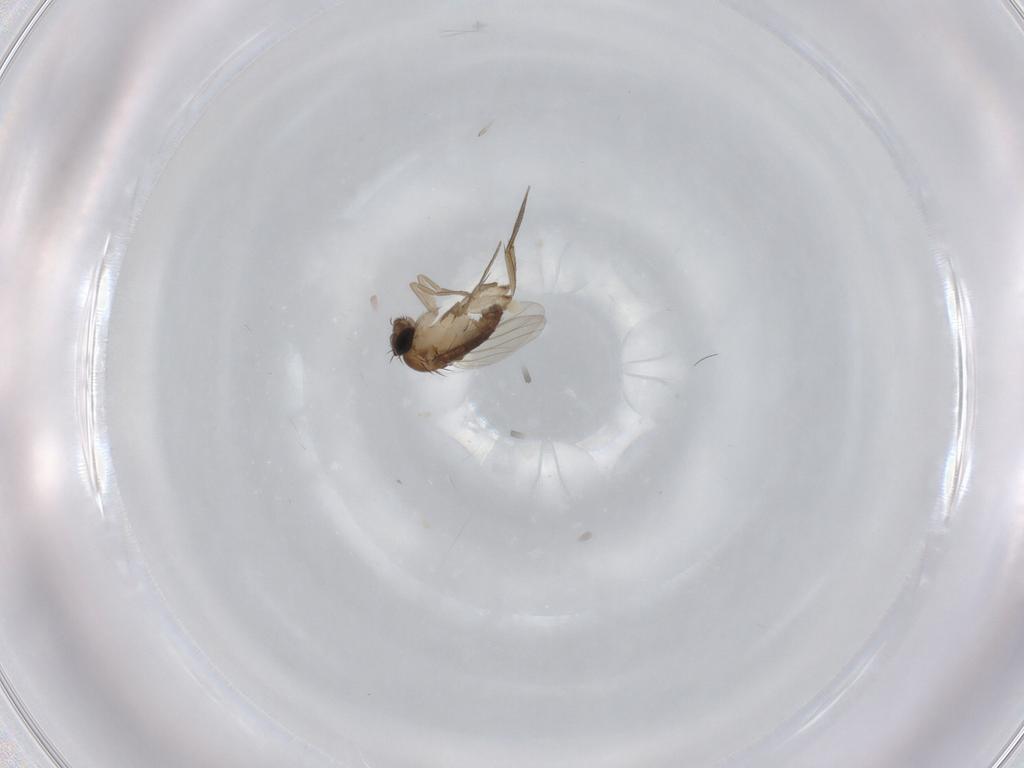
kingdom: Animalia
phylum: Arthropoda
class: Insecta
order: Diptera
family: Phoridae
